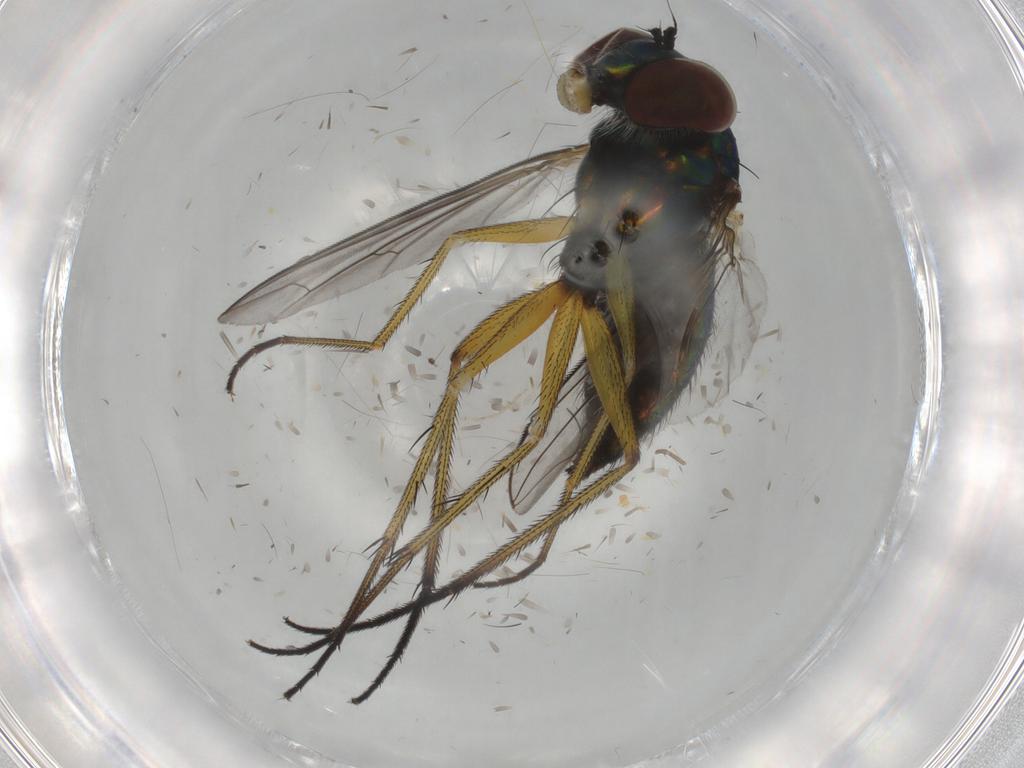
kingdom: Animalia
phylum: Arthropoda
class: Insecta
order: Diptera
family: Dolichopodidae
